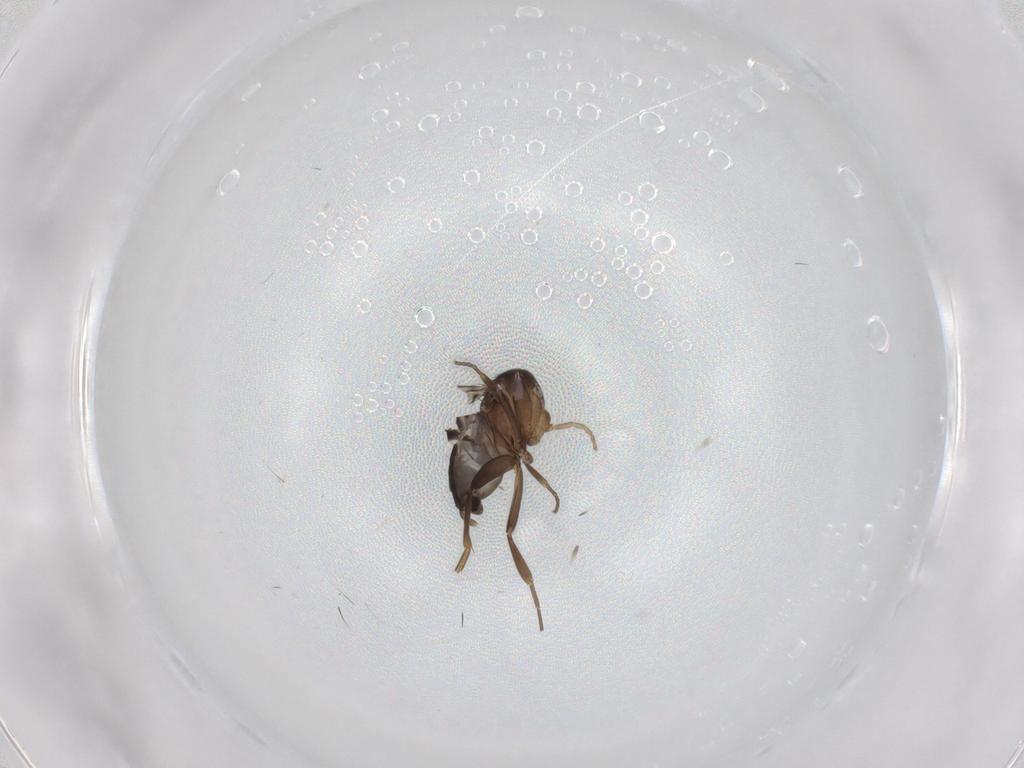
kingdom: Animalia
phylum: Arthropoda
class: Insecta
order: Diptera
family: Phoridae
